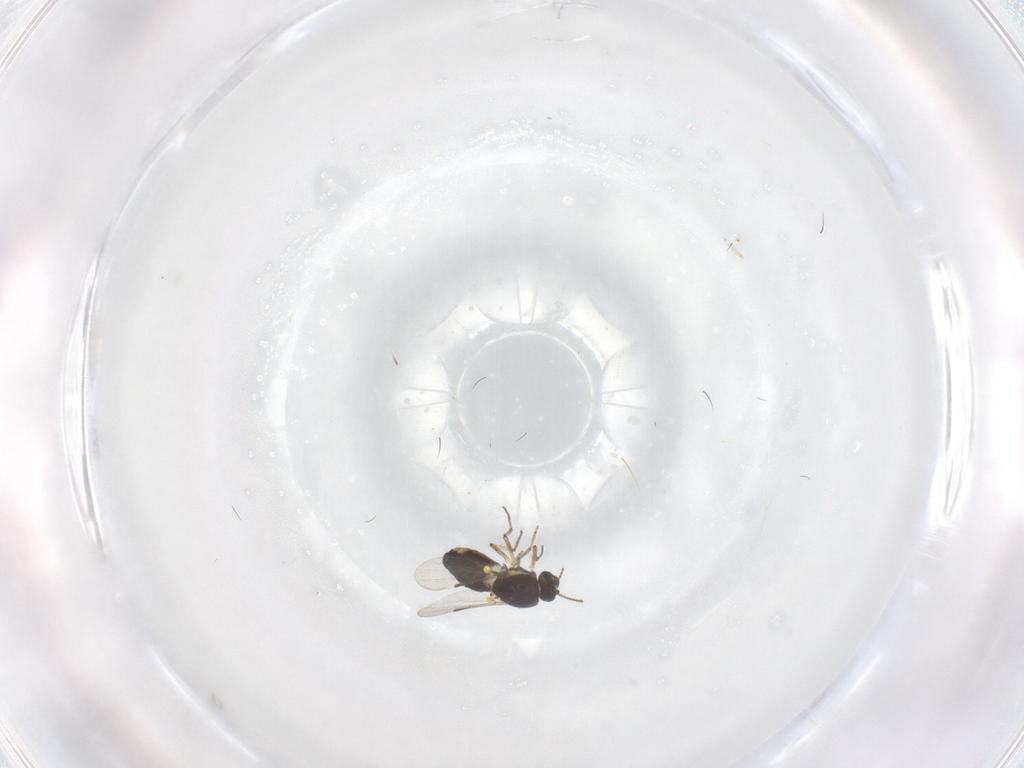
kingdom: Animalia
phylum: Arthropoda
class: Insecta
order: Diptera
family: Ceratopogonidae
